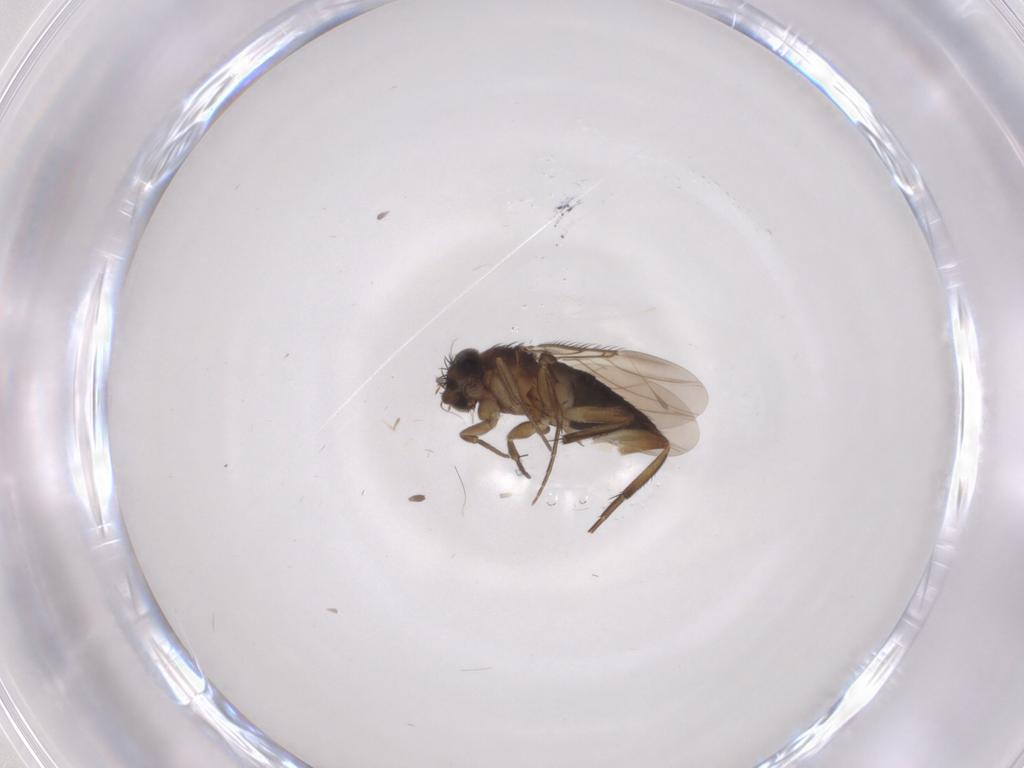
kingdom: Animalia
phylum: Arthropoda
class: Insecta
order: Diptera
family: Phoridae
